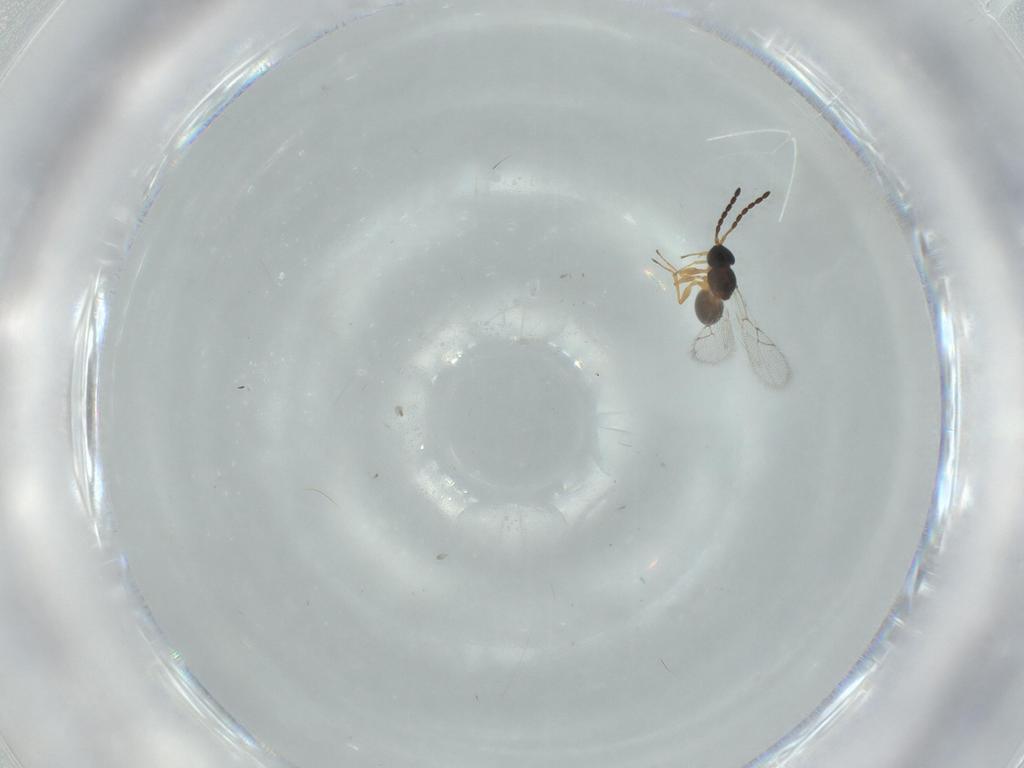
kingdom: Animalia
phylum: Arthropoda
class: Insecta
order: Hymenoptera
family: Figitidae
